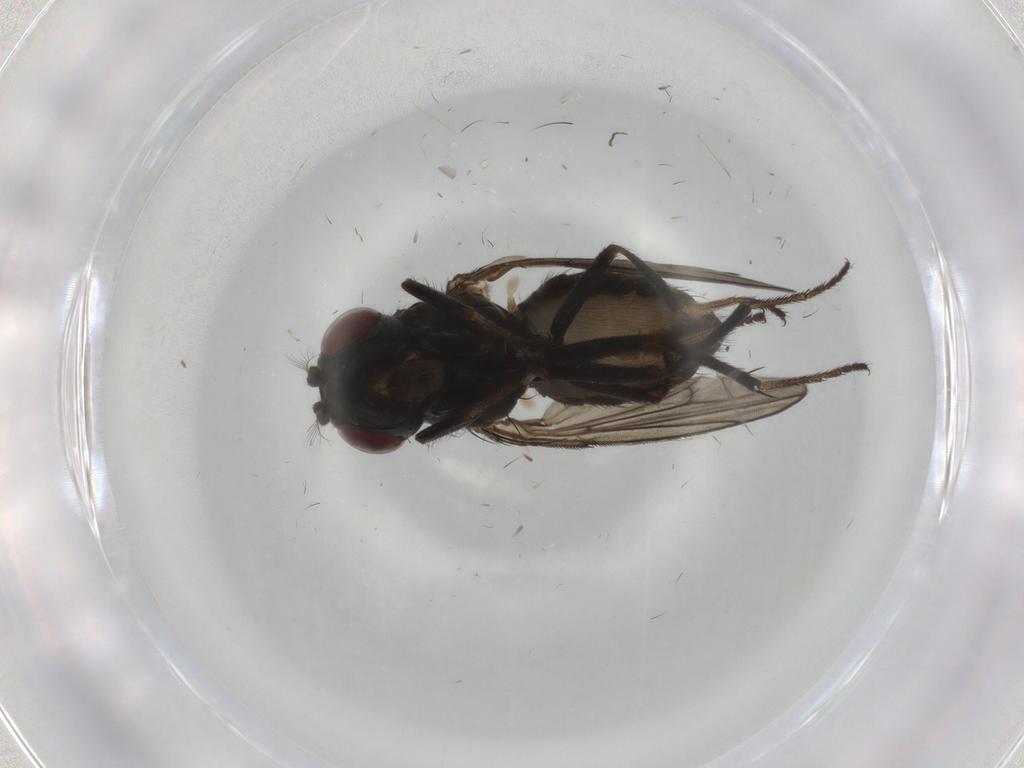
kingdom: Animalia
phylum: Arthropoda
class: Insecta
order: Diptera
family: Ephydridae
